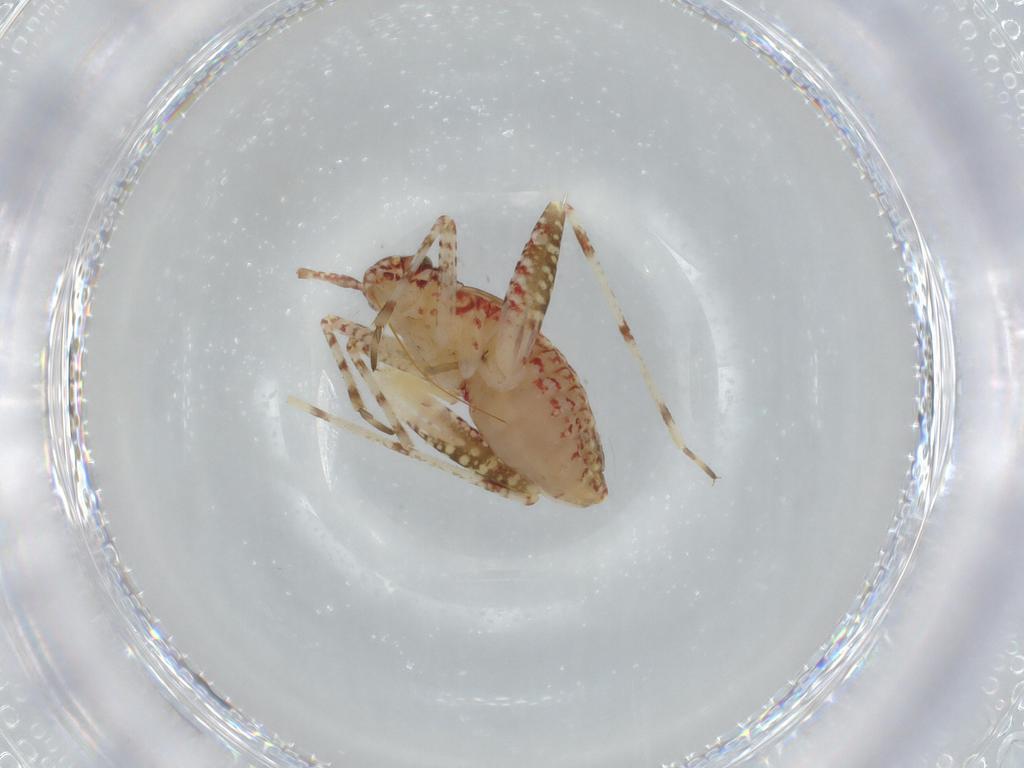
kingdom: Animalia
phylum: Arthropoda
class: Insecta
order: Hemiptera
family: Miridae
